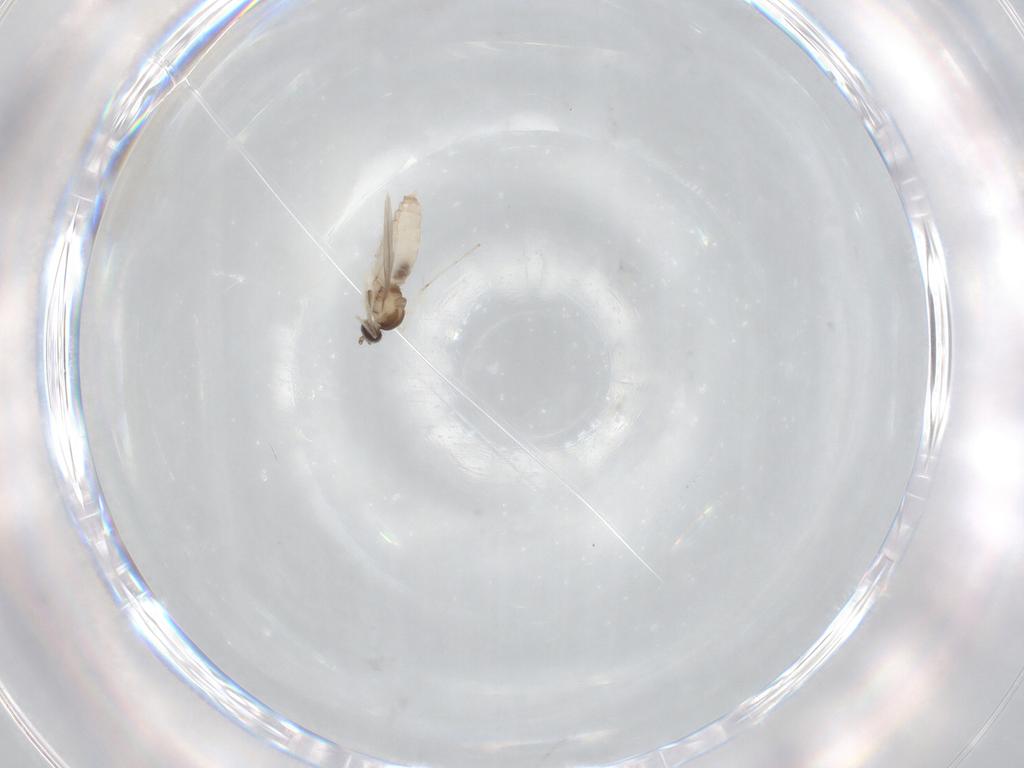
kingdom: Animalia
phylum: Arthropoda
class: Insecta
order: Diptera
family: Cecidomyiidae
